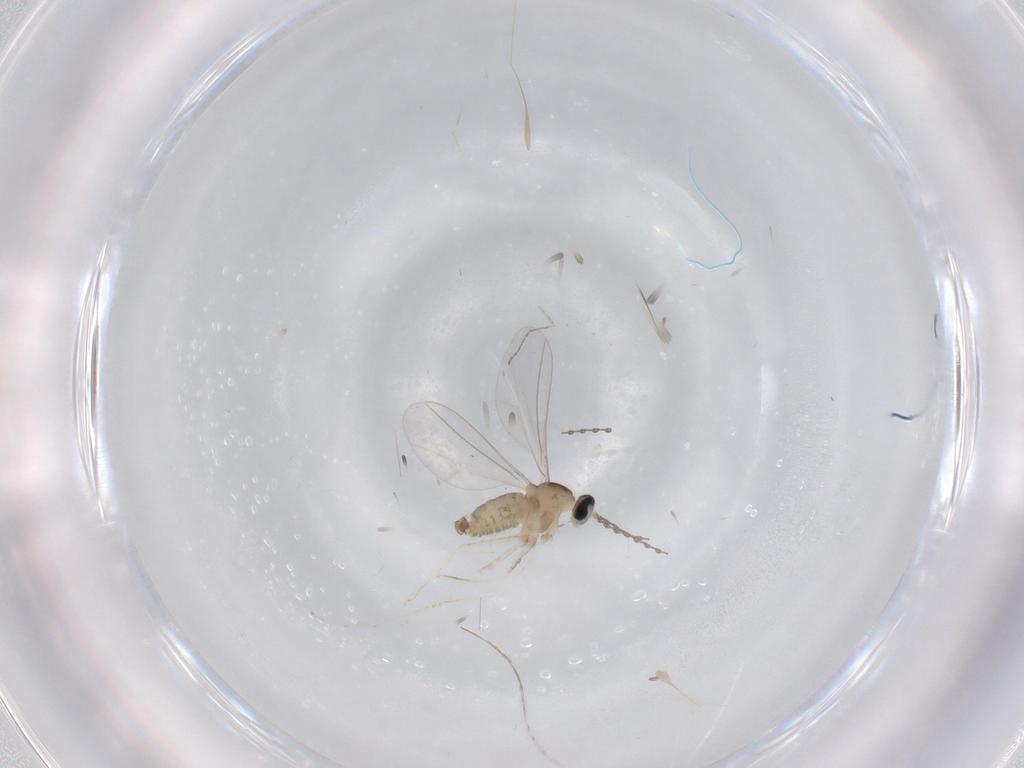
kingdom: Animalia
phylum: Arthropoda
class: Insecta
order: Diptera
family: Cecidomyiidae
